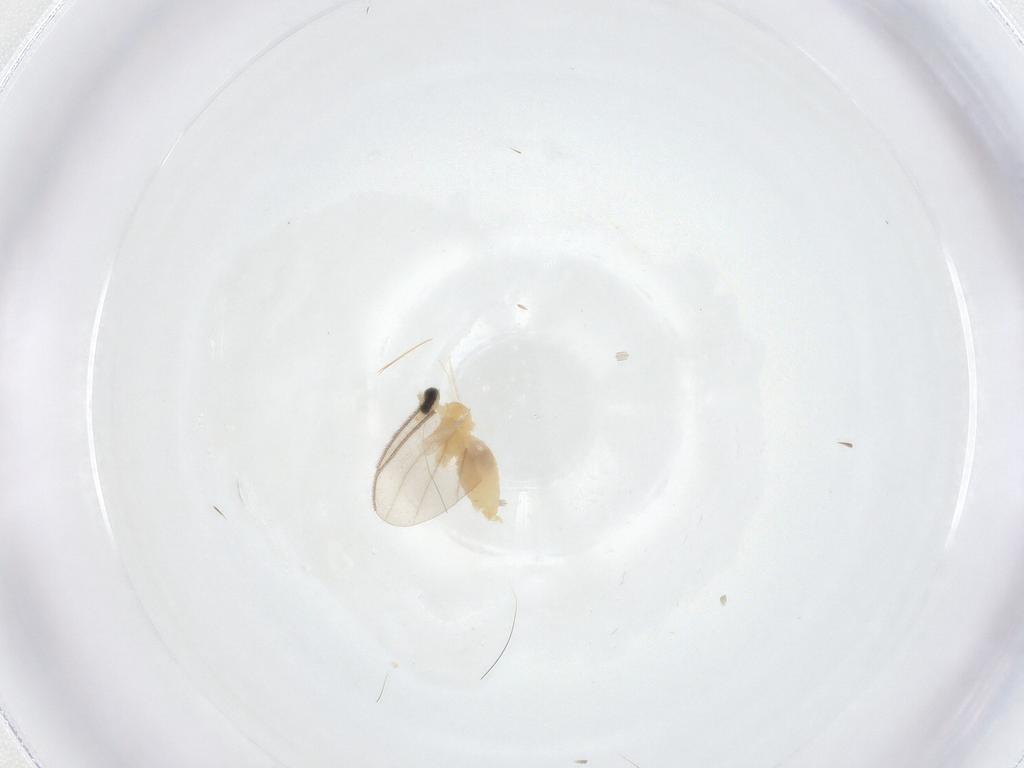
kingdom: Animalia
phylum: Arthropoda
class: Insecta
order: Diptera
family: Cecidomyiidae
